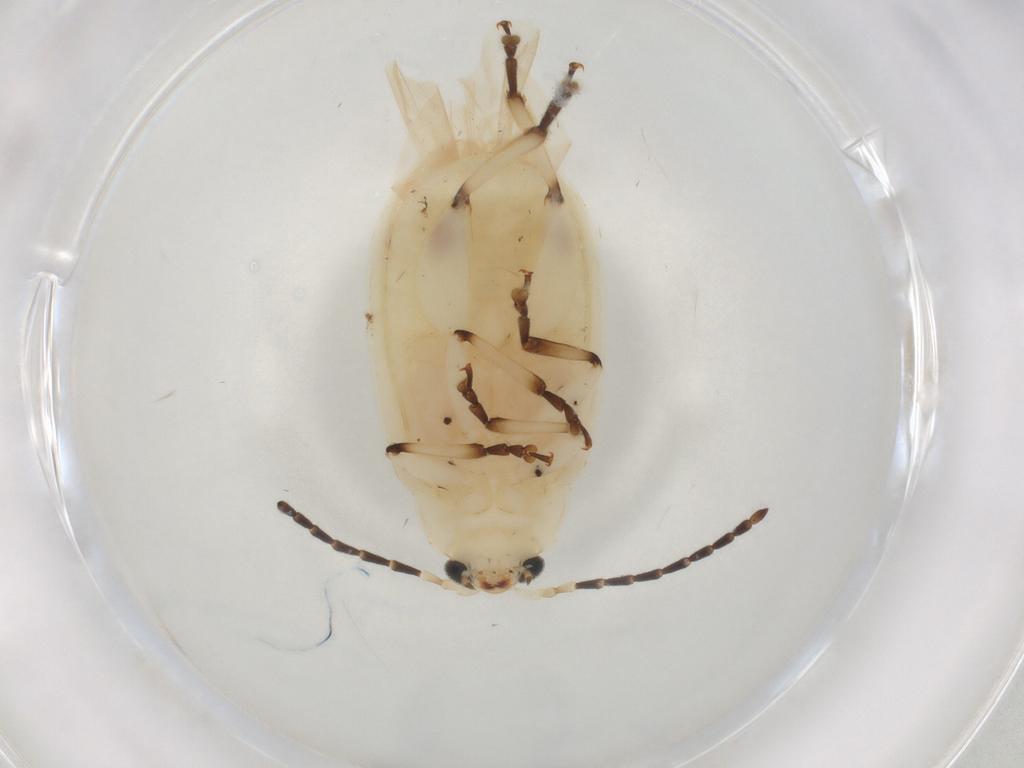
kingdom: Animalia
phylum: Arthropoda
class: Insecta
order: Coleoptera
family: Chrysomelidae
